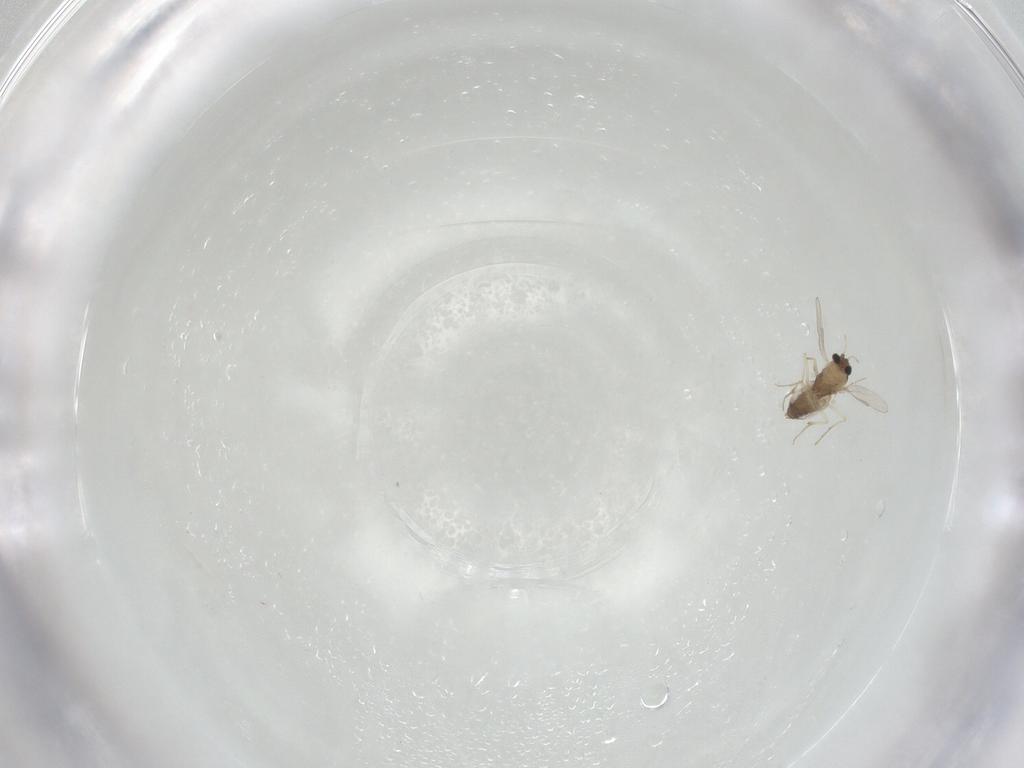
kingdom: Animalia
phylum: Arthropoda
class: Insecta
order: Diptera
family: Chironomidae
